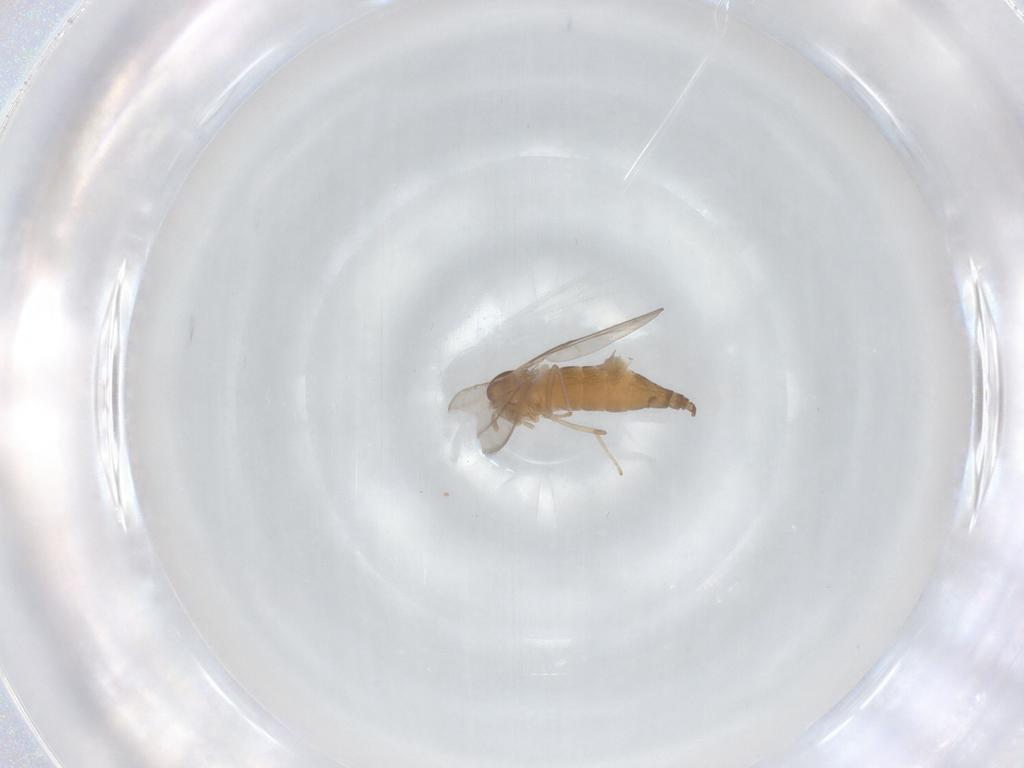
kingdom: Animalia
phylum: Arthropoda
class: Insecta
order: Diptera
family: Cecidomyiidae
